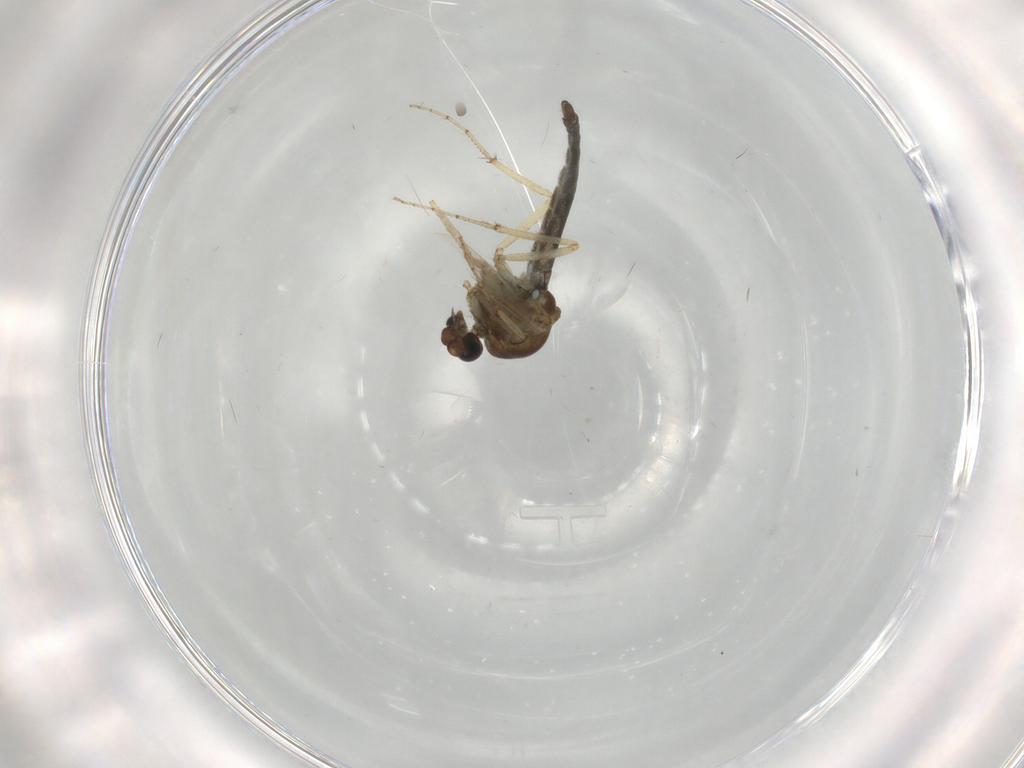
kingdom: Animalia
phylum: Arthropoda
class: Insecta
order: Diptera
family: Ceratopogonidae
